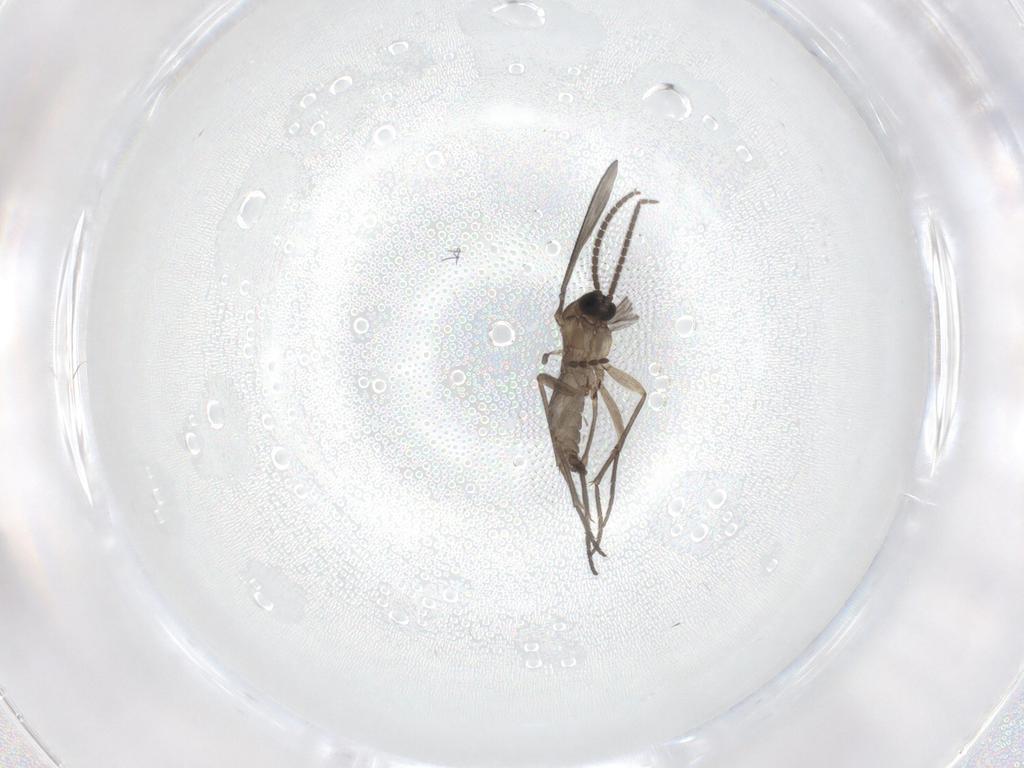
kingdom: Animalia
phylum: Arthropoda
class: Insecta
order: Diptera
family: Sciaridae
